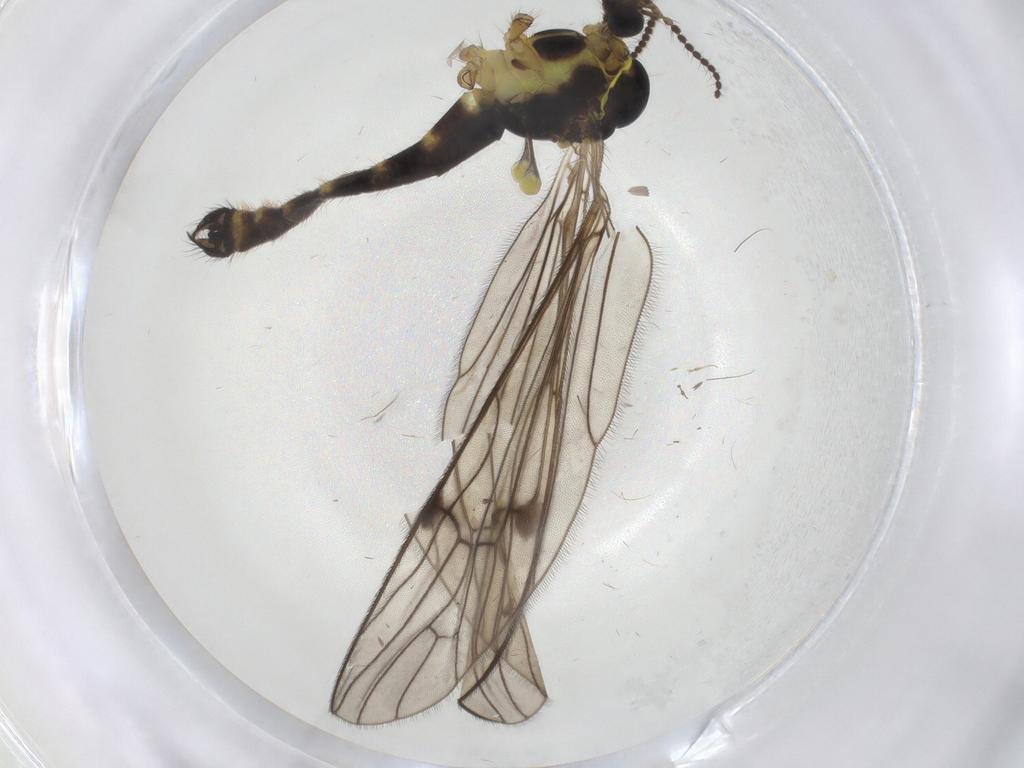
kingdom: Animalia
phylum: Arthropoda
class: Insecta
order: Diptera
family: Limoniidae
